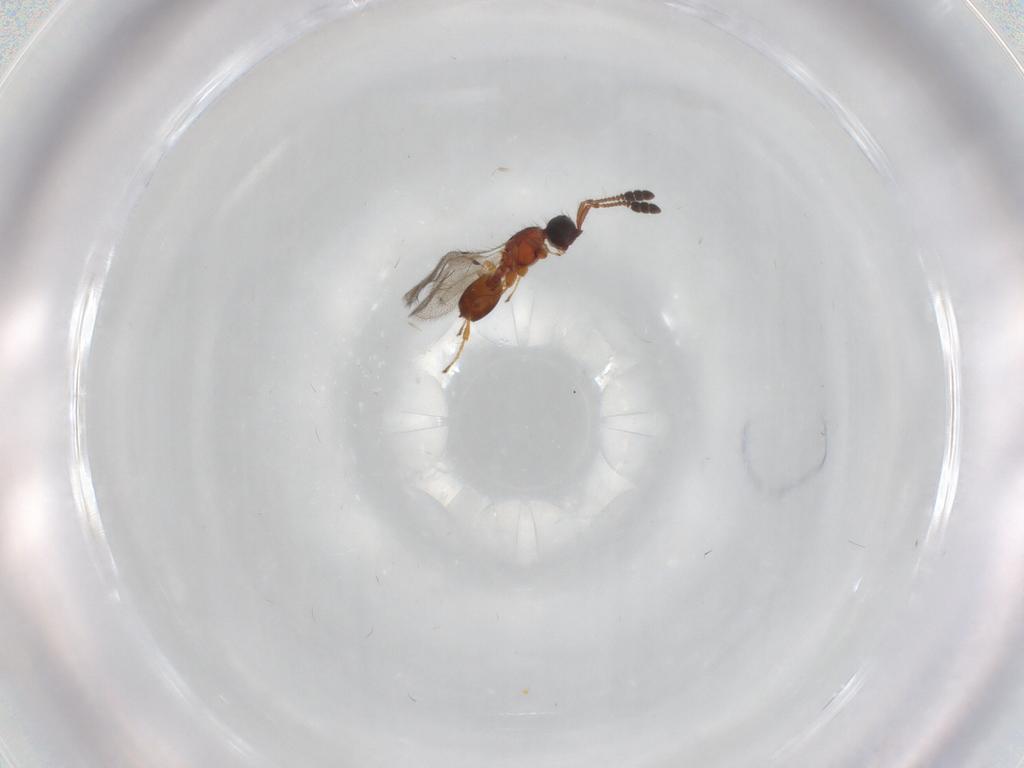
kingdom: Animalia
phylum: Arthropoda
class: Insecta
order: Hymenoptera
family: Diapriidae
